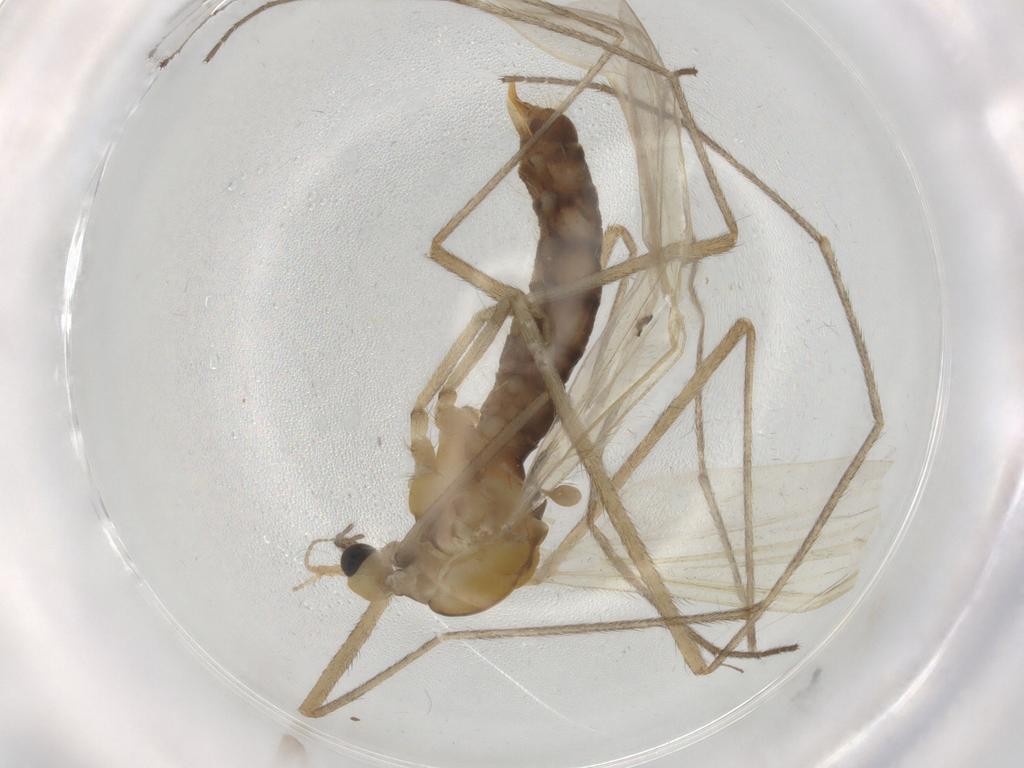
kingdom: Animalia
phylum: Arthropoda
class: Insecta
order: Diptera
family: Limoniidae
